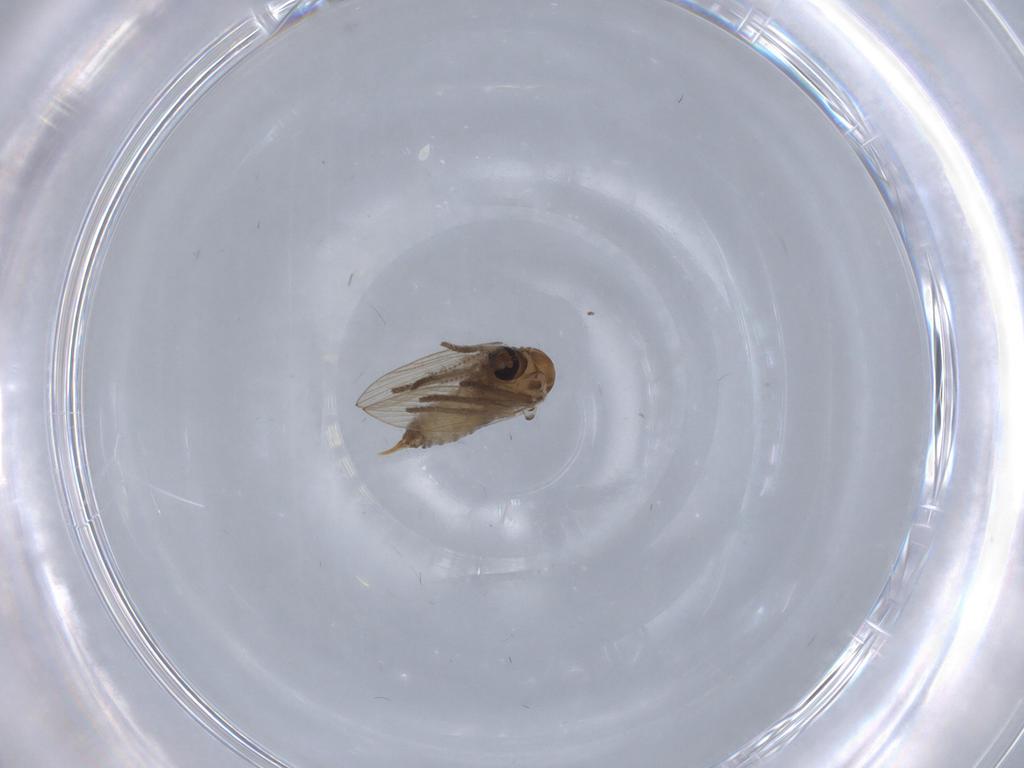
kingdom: Animalia
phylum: Arthropoda
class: Insecta
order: Diptera
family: Psychodidae
